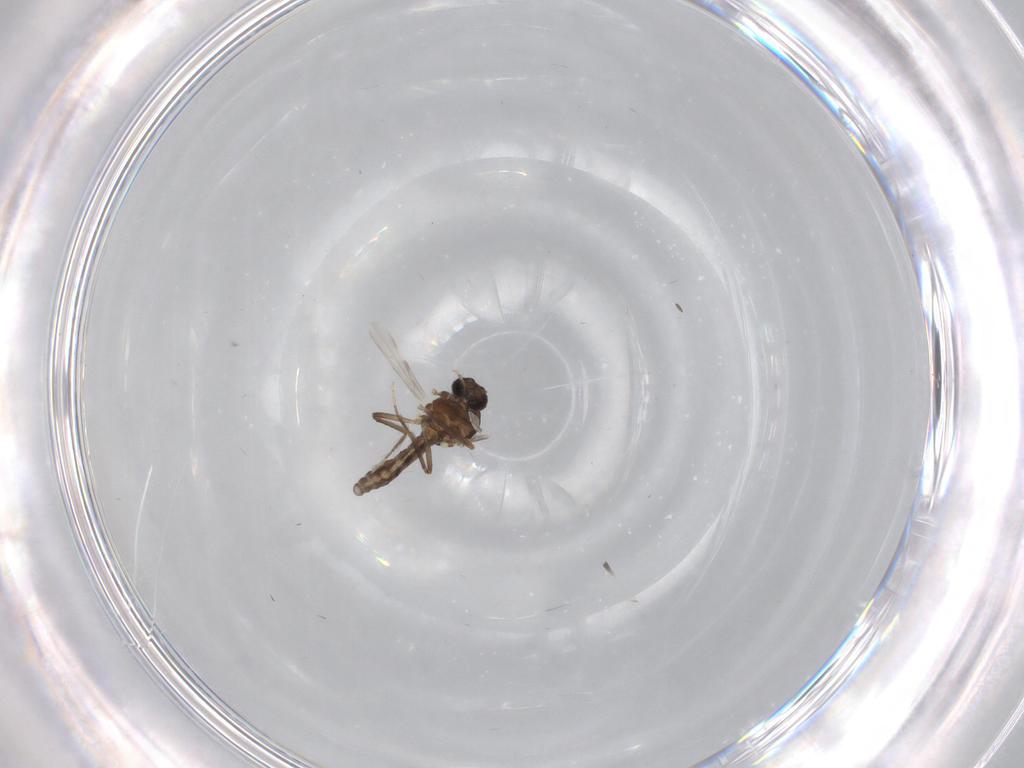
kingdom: Animalia
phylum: Arthropoda
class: Insecta
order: Diptera
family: Ceratopogonidae
